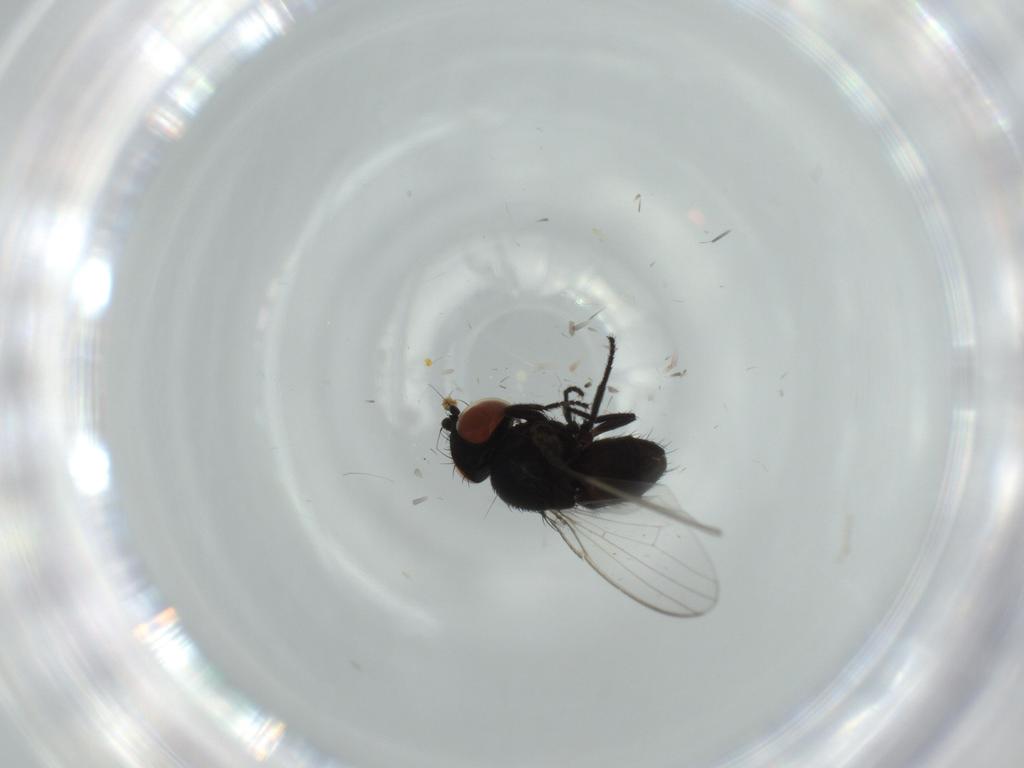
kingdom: Animalia
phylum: Arthropoda
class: Insecta
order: Diptera
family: Milichiidae
